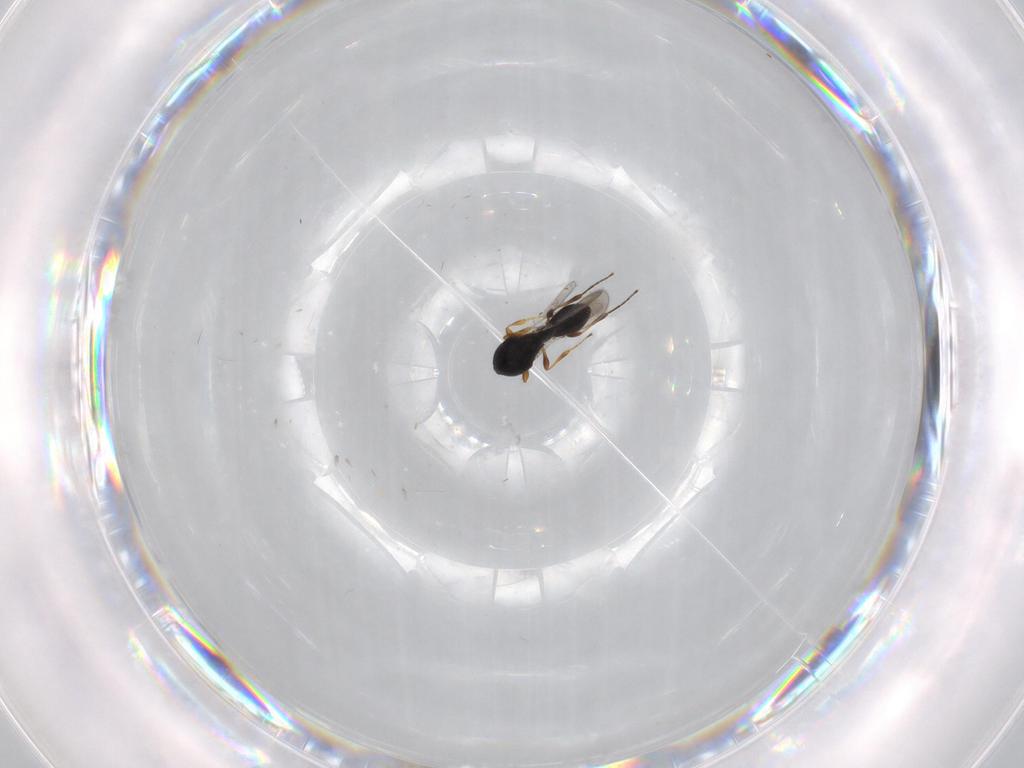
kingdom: Animalia
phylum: Arthropoda
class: Insecta
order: Hymenoptera
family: Platygastridae
